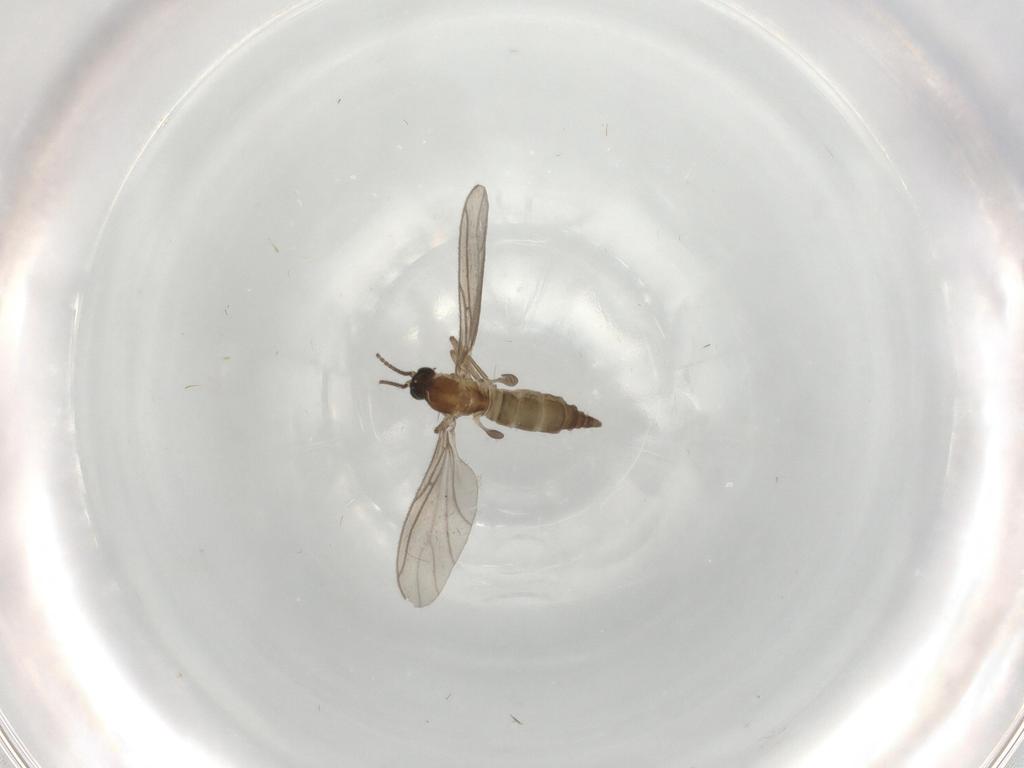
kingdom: Animalia
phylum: Arthropoda
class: Insecta
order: Diptera
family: Sciaridae
